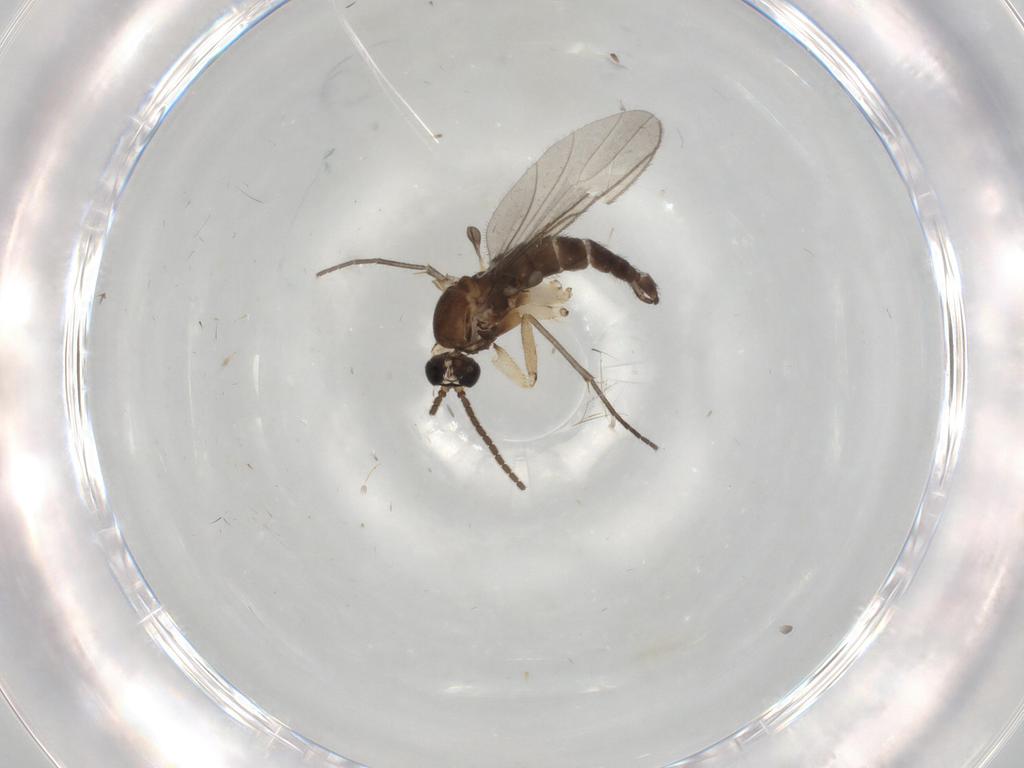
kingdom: Animalia
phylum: Arthropoda
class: Insecta
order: Diptera
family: Sciaridae
